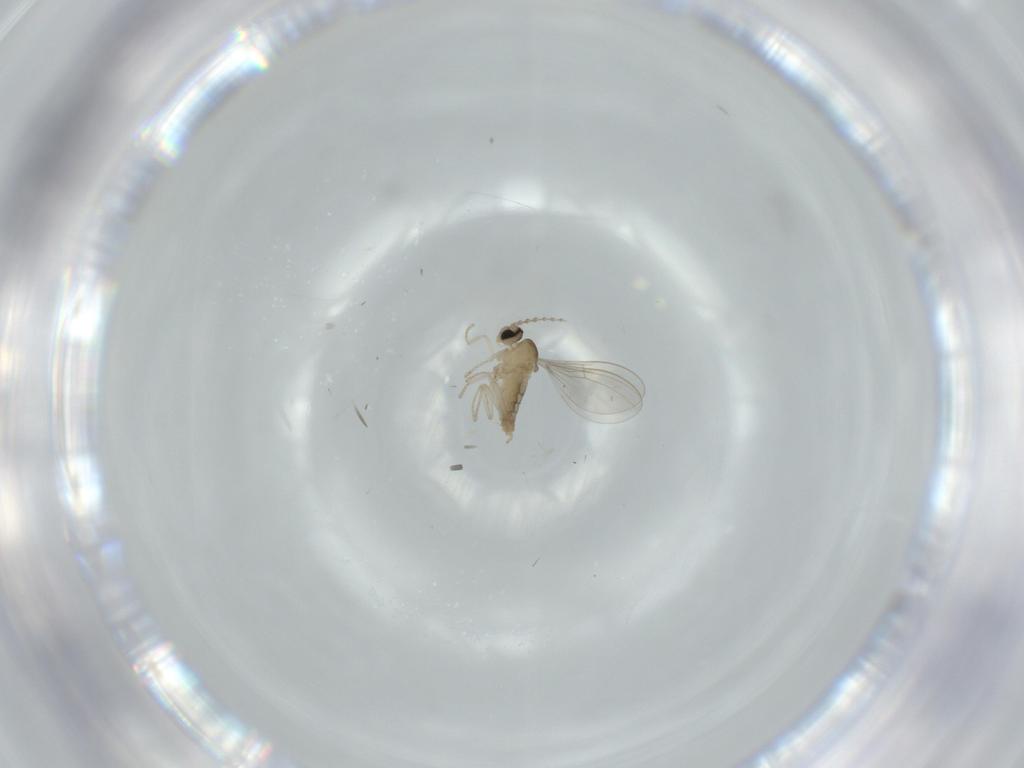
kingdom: Animalia
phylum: Arthropoda
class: Insecta
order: Diptera
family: Cecidomyiidae
